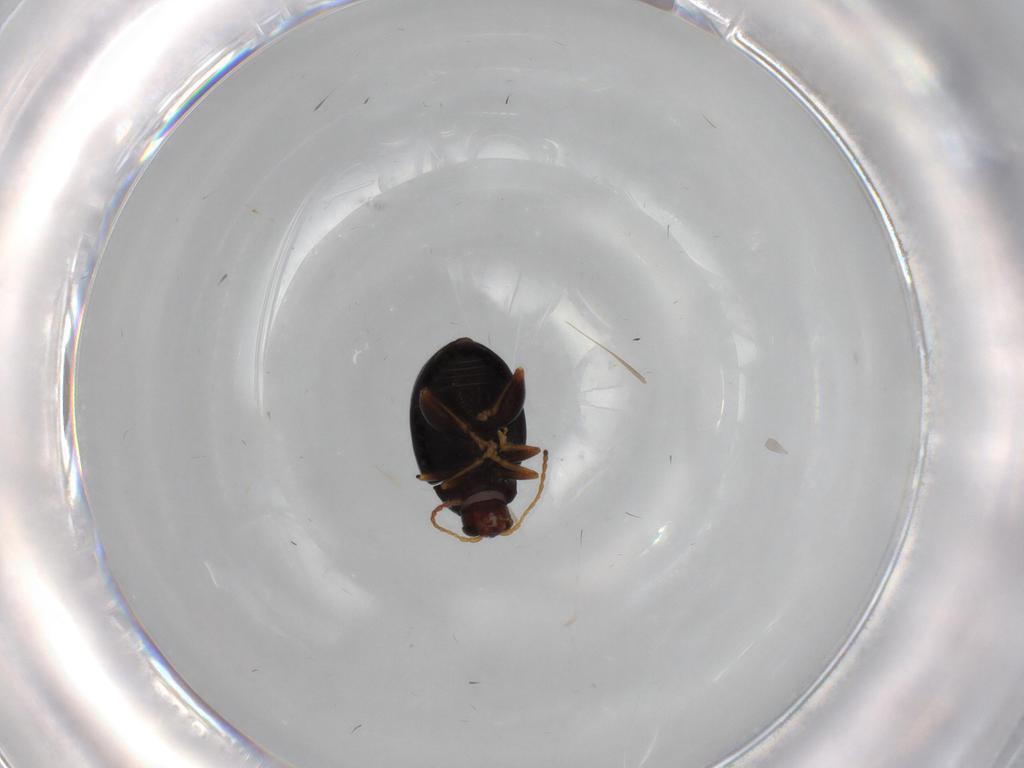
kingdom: Animalia
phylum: Arthropoda
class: Insecta
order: Coleoptera
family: Chrysomelidae
